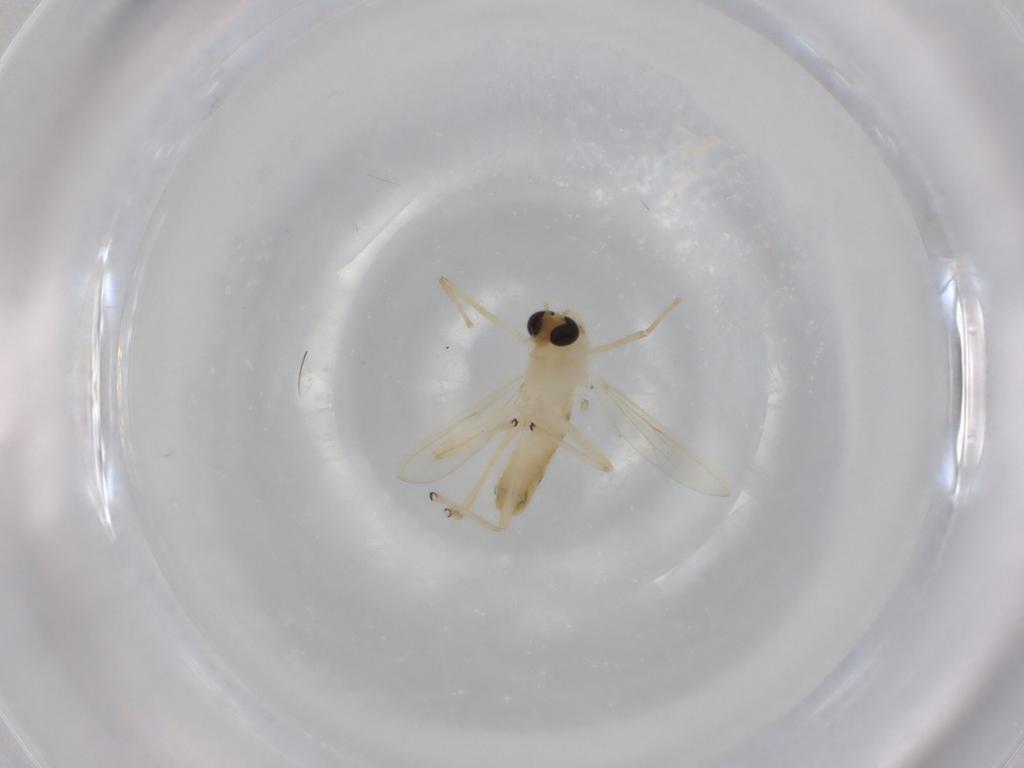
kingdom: Animalia
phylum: Arthropoda
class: Insecta
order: Diptera
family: Chironomidae
